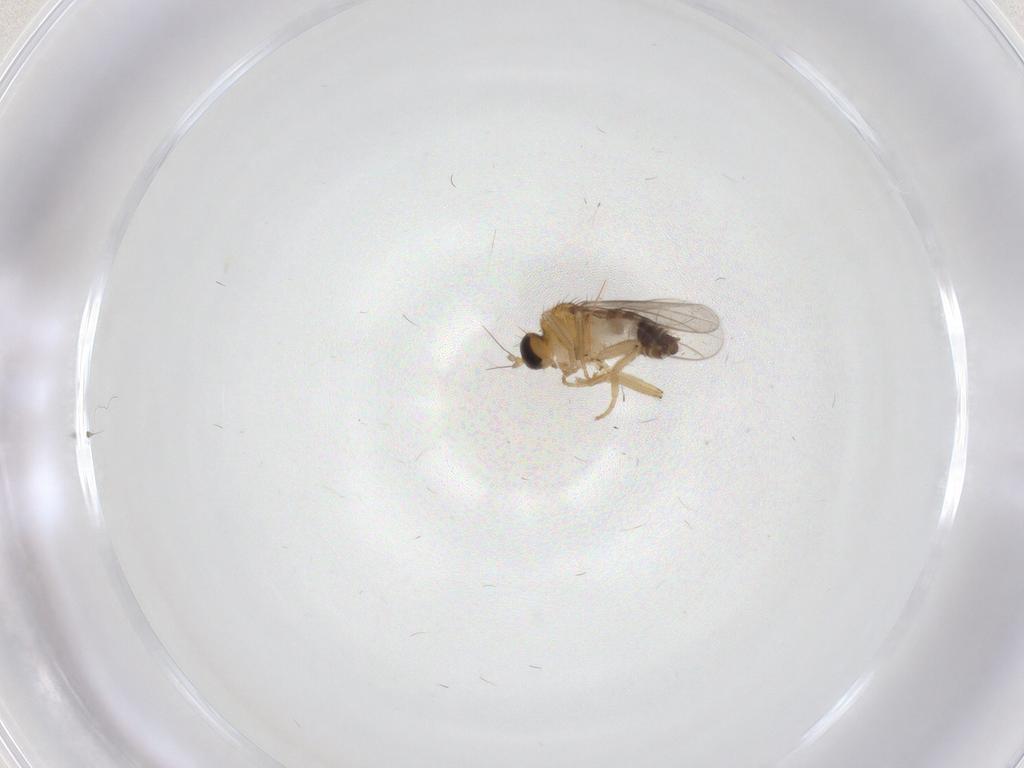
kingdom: Animalia
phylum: Arthropoda
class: Insecta
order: Diptera
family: Hybotidae
